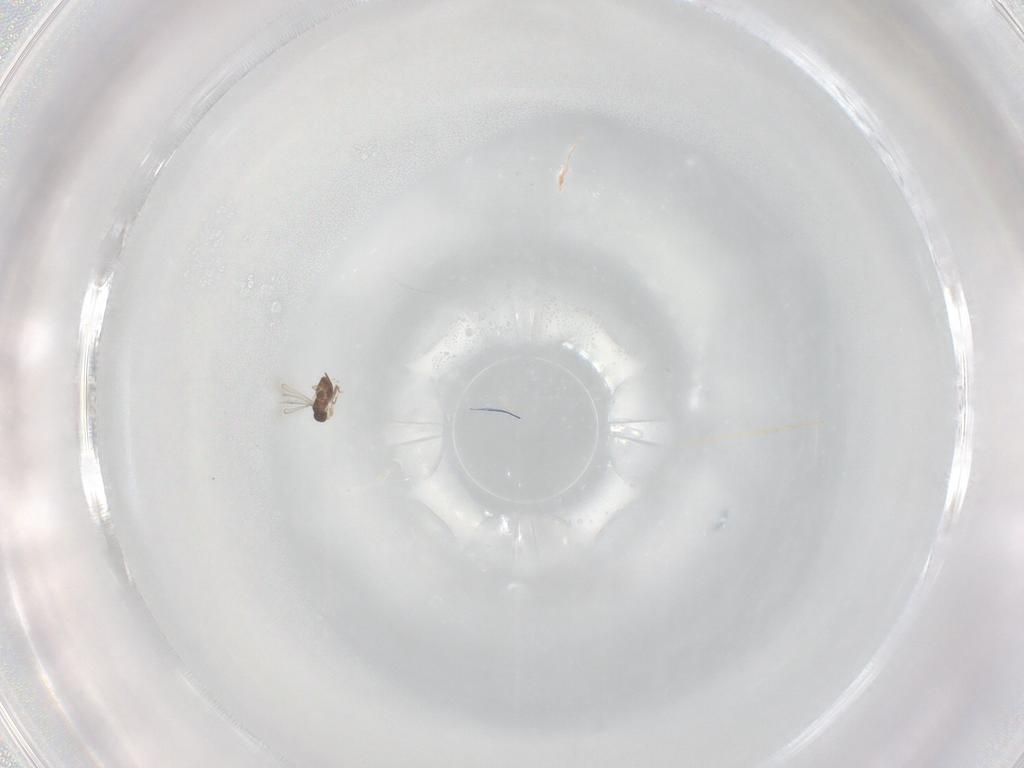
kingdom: Animalia
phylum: Arthropoda
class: Insecta
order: Hymenoptera
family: Mymaridae
